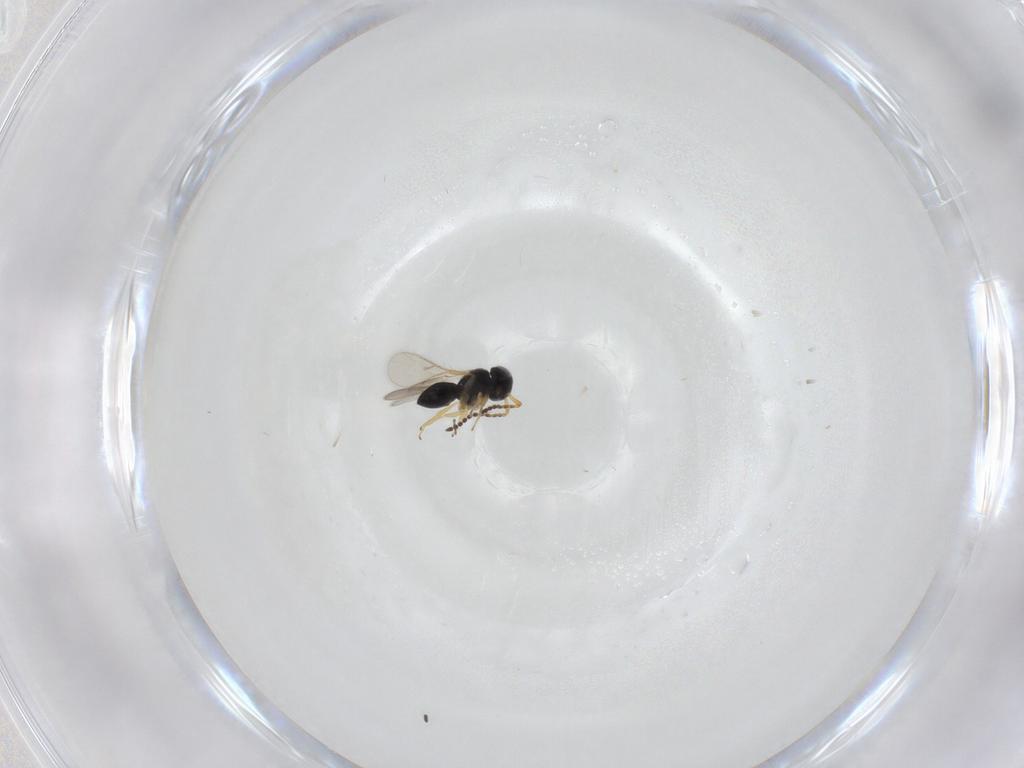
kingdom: Animalia
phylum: Arthropoda
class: Insecta
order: Hymenoptera
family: Scelionidae
